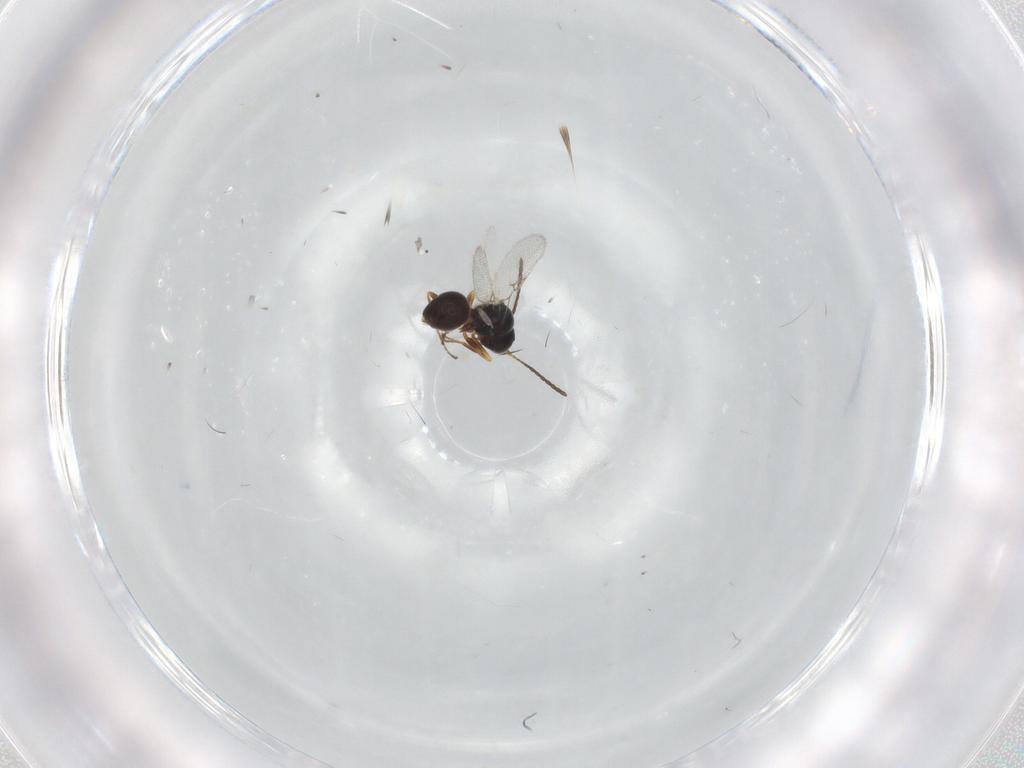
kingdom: Animalia
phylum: Arthropoda
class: Insecta
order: Hymenoptera
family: Figitidae
